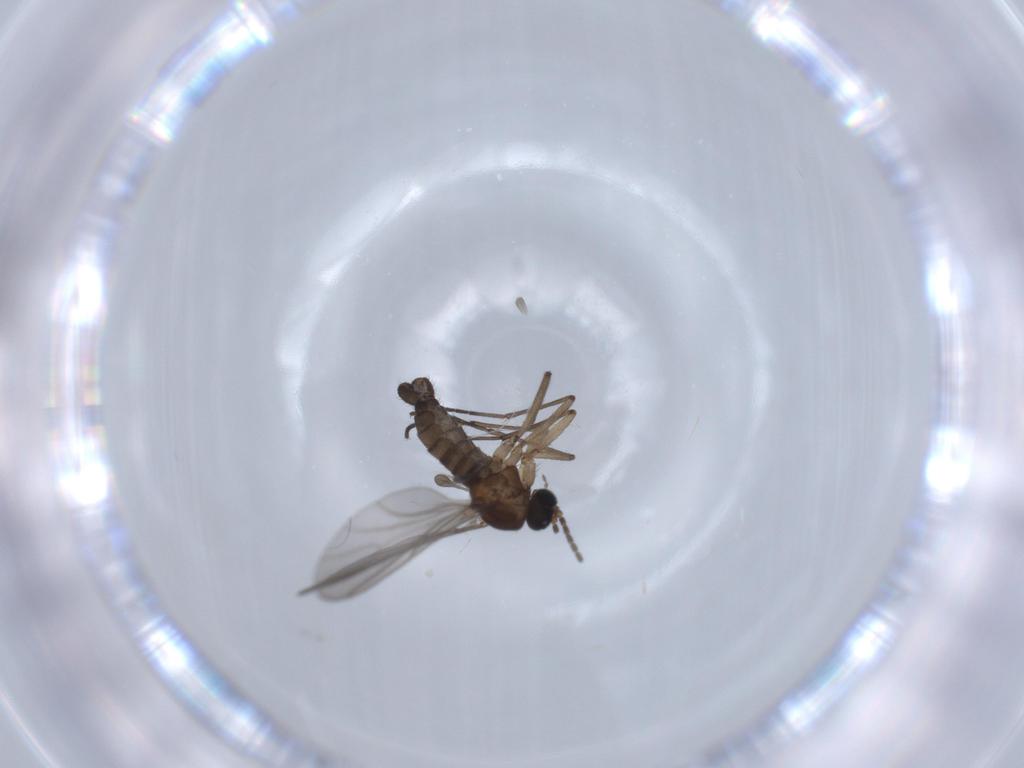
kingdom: Animalia
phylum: Arthropoda
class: Insecta
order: Diptera
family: Sciaridae
